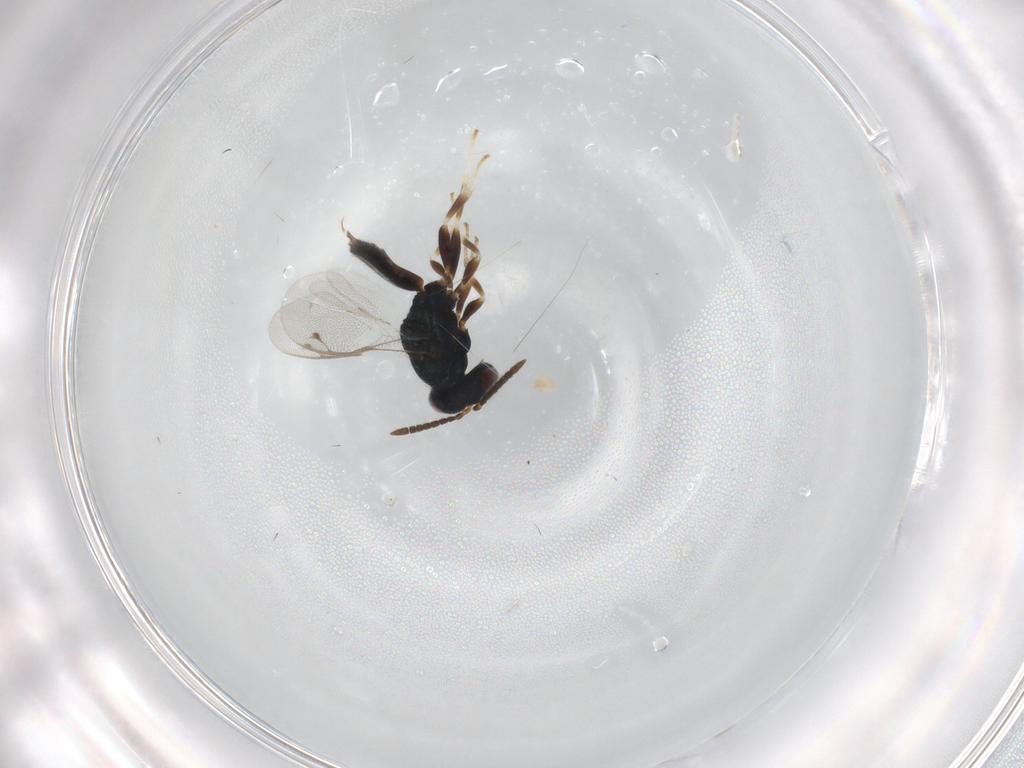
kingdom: Animalia
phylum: Arthropoda
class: Insecta
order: Hymenoptera
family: Pteromalidae
